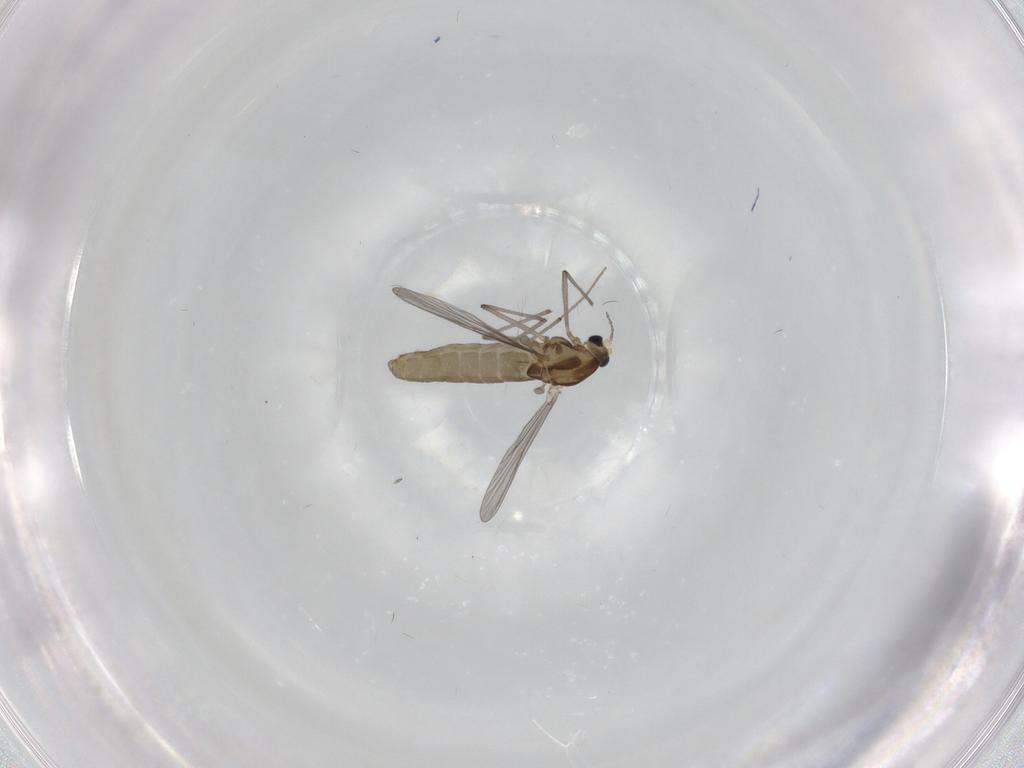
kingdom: Animalia
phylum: Arthropoda
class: Insecta
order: Diptera
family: Cecidomyiidae
